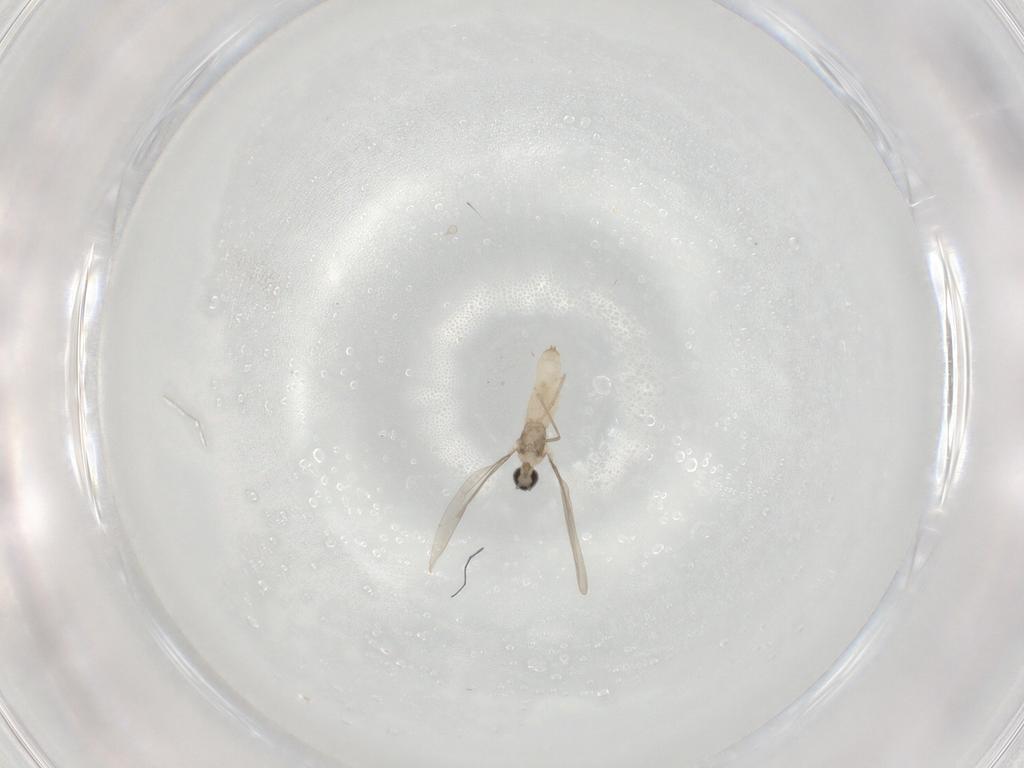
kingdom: Animalia
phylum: Arthropoda
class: Insecta
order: Diptera
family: Cecidomyiidae
